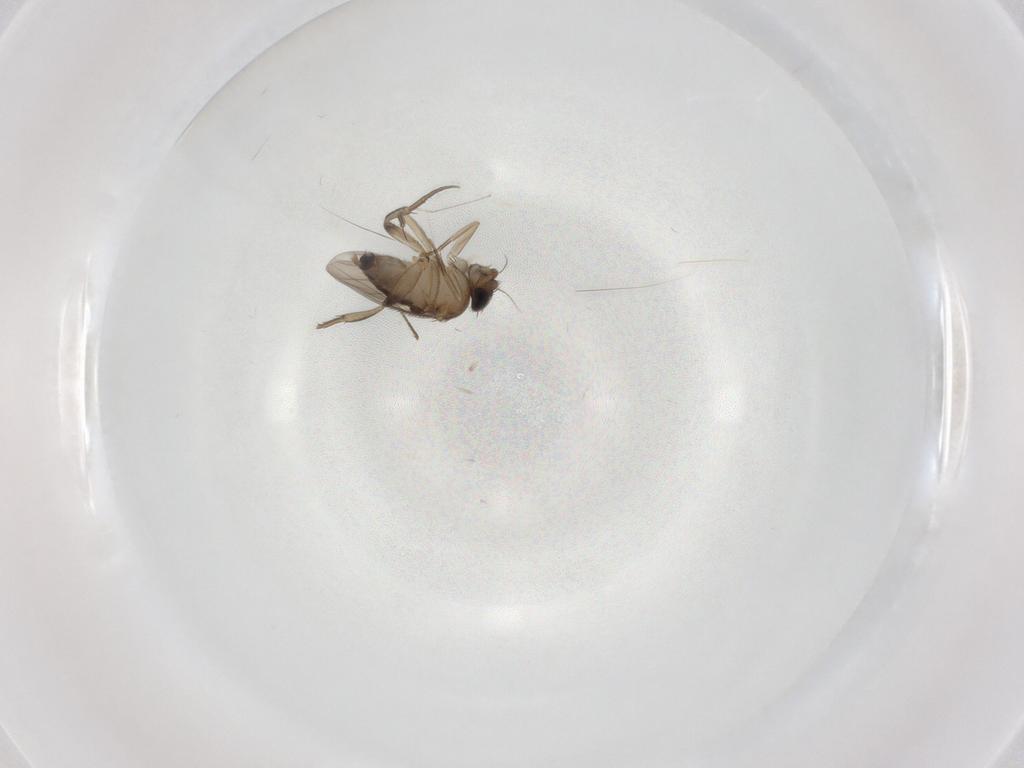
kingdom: Animalia
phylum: Arthropoda
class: Insecta
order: Diptera
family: Phoridae
